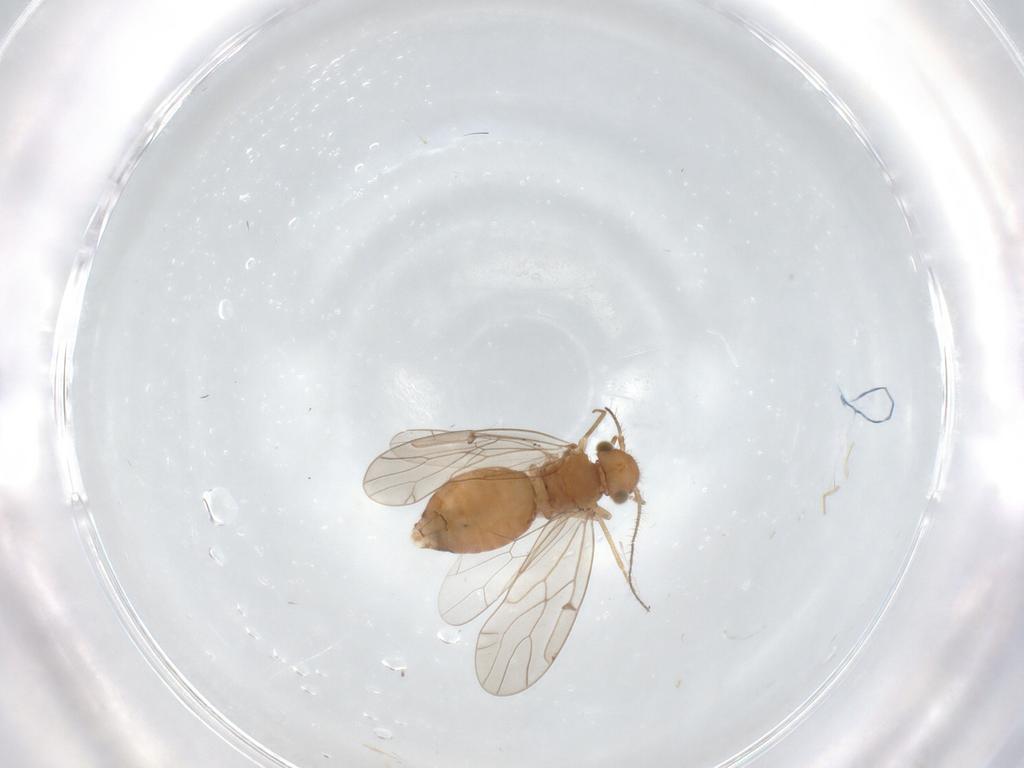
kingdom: Animalia
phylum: Arthropoda
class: Insecta
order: Psocodea
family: Ectopsocidae
